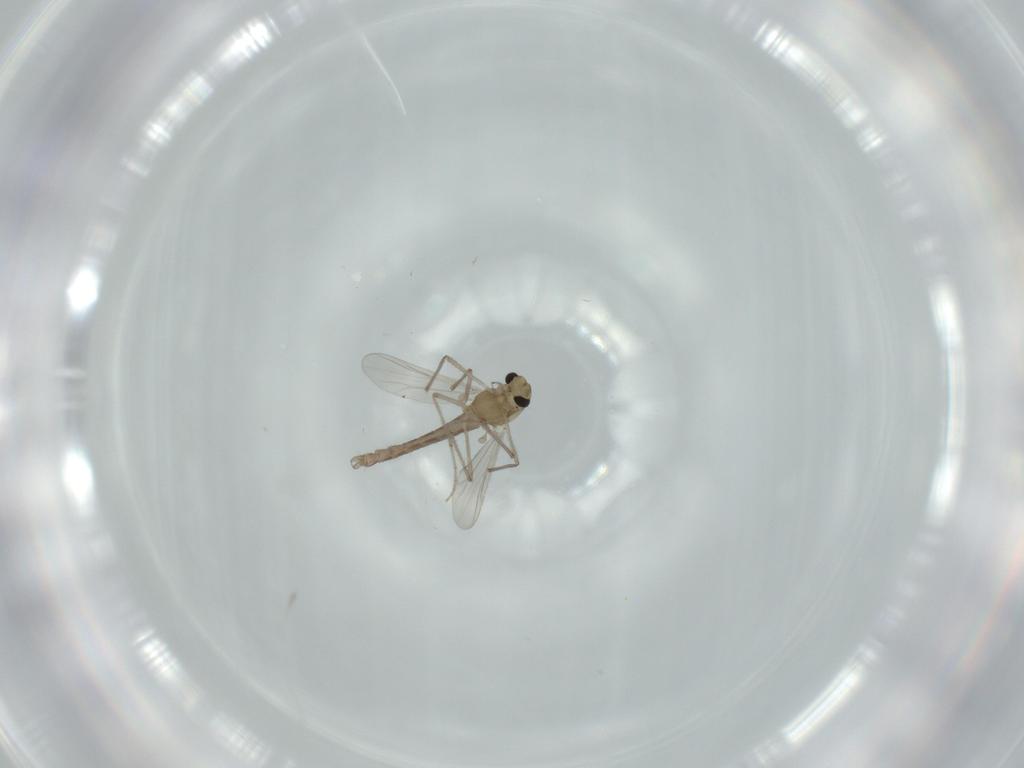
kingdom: Animalia
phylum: Arthropoda
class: Insecta
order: Diptera
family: Chironomidae
